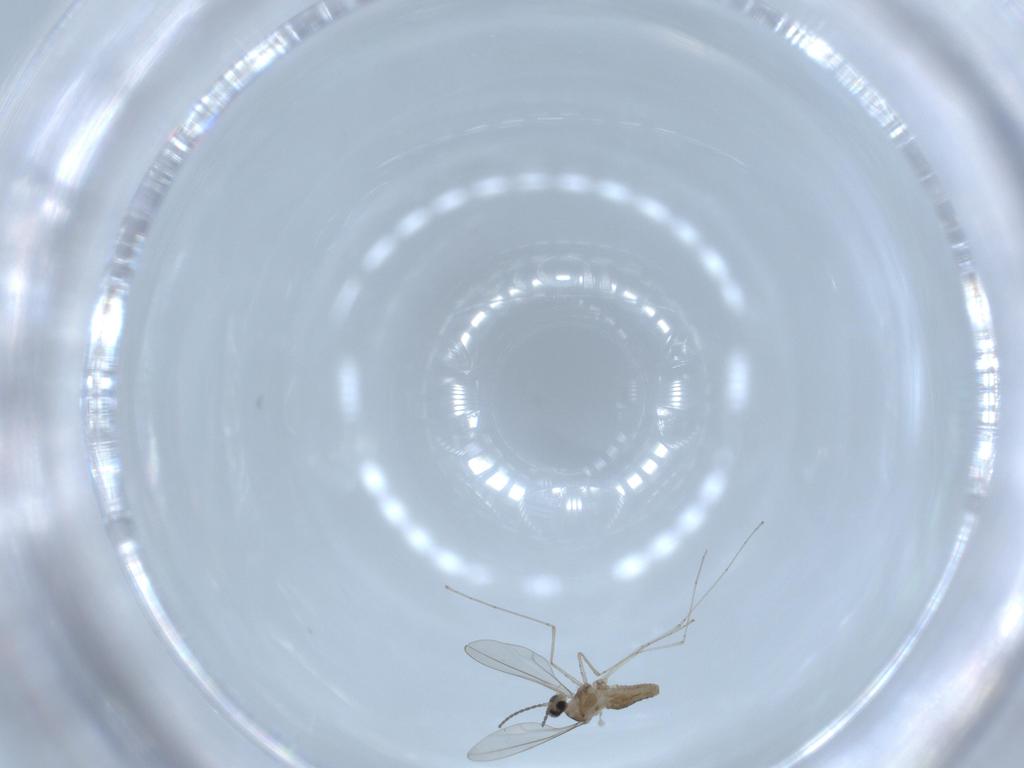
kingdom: Animalia
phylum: Arthropoda
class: Insecta
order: Diptera
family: Cecidomyiidae
